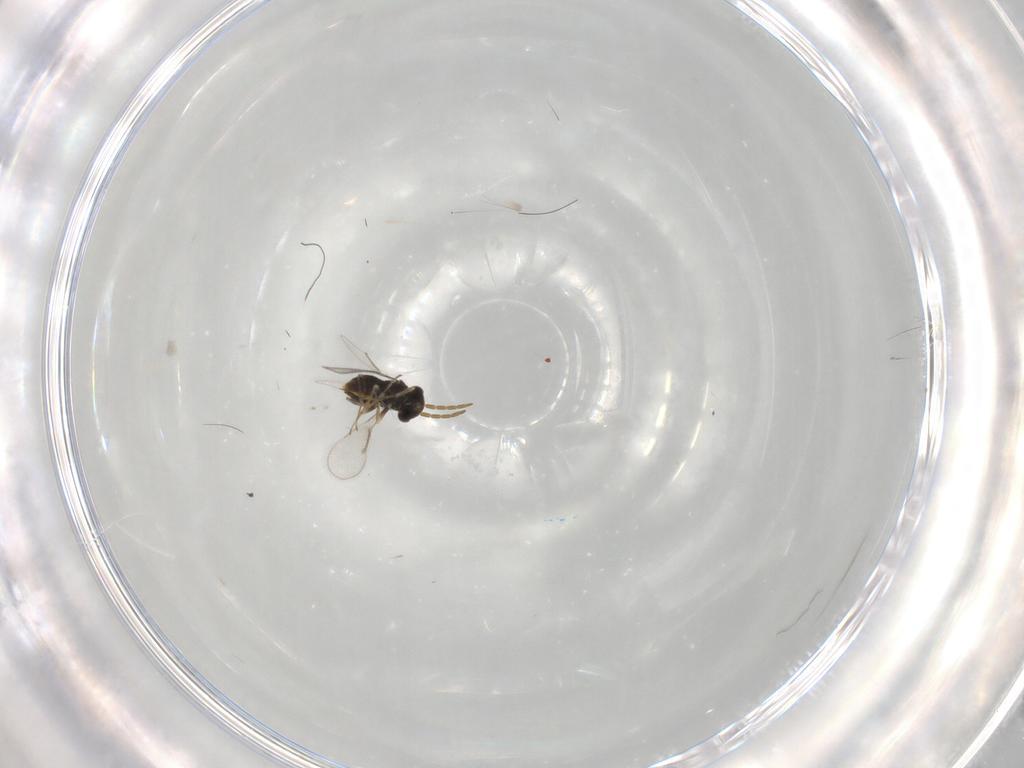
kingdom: Animalia
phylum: Arthropoda
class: Insecta
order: Hymenoptera
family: Aphelinidae
